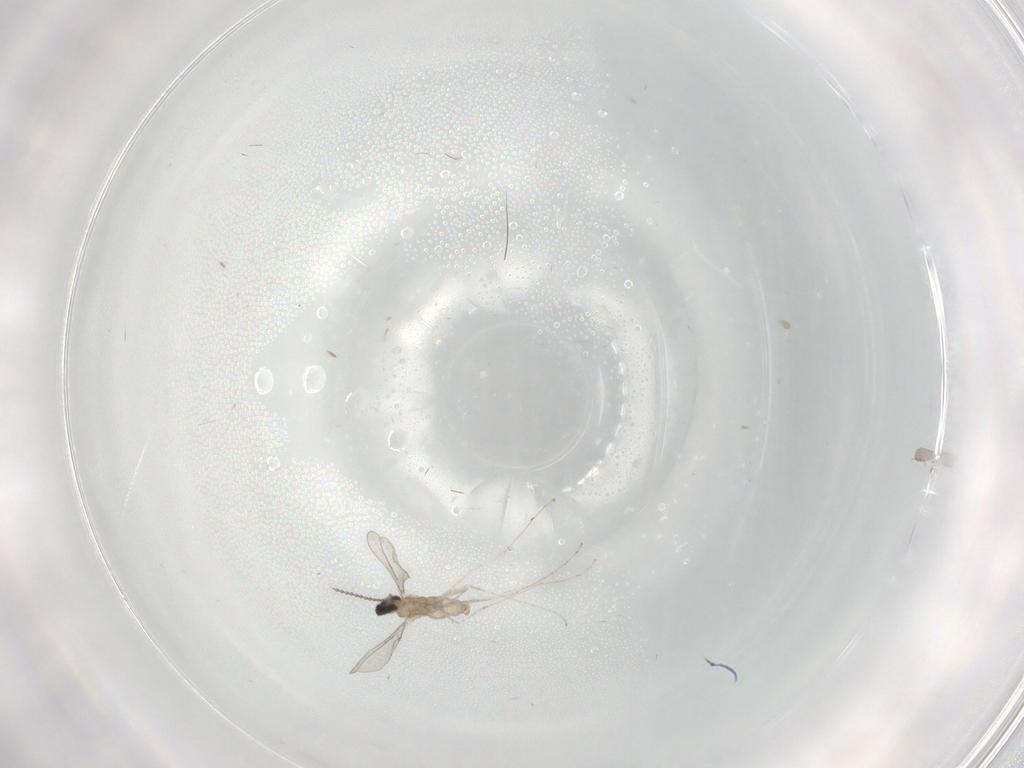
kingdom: Animalia
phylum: Arthropoda
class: Insecta
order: Diptera
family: Cecidomyiidae
